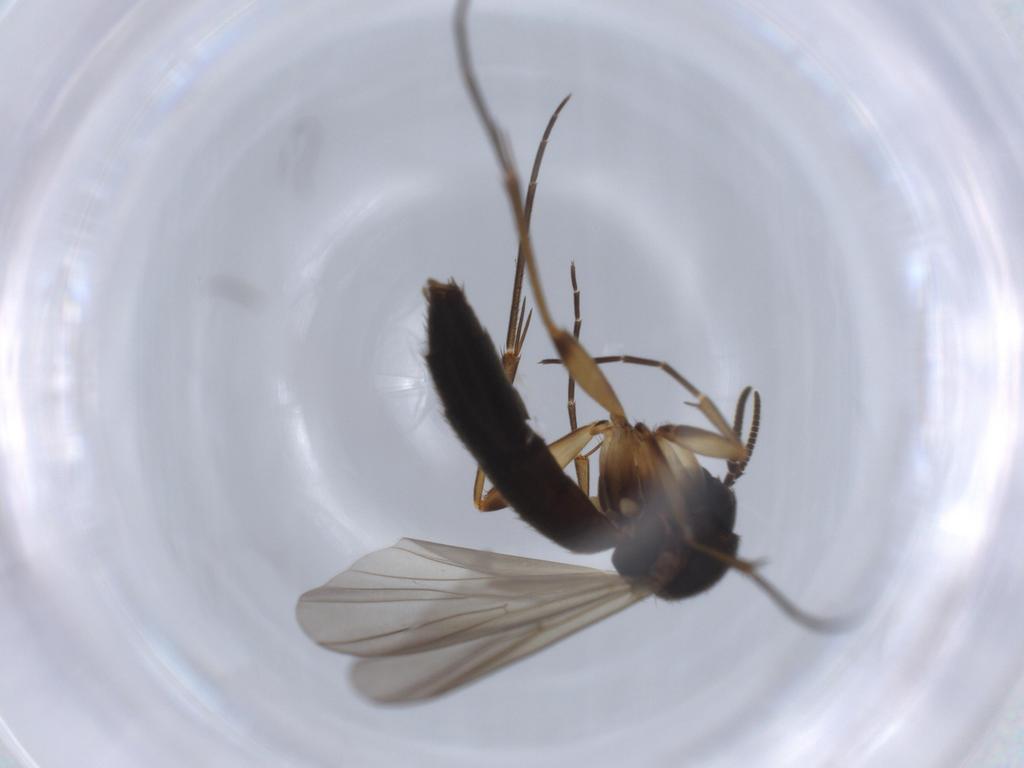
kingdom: Animalia
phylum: Arthropoda
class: Insecta
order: Diptera
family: Mycetophilidae
